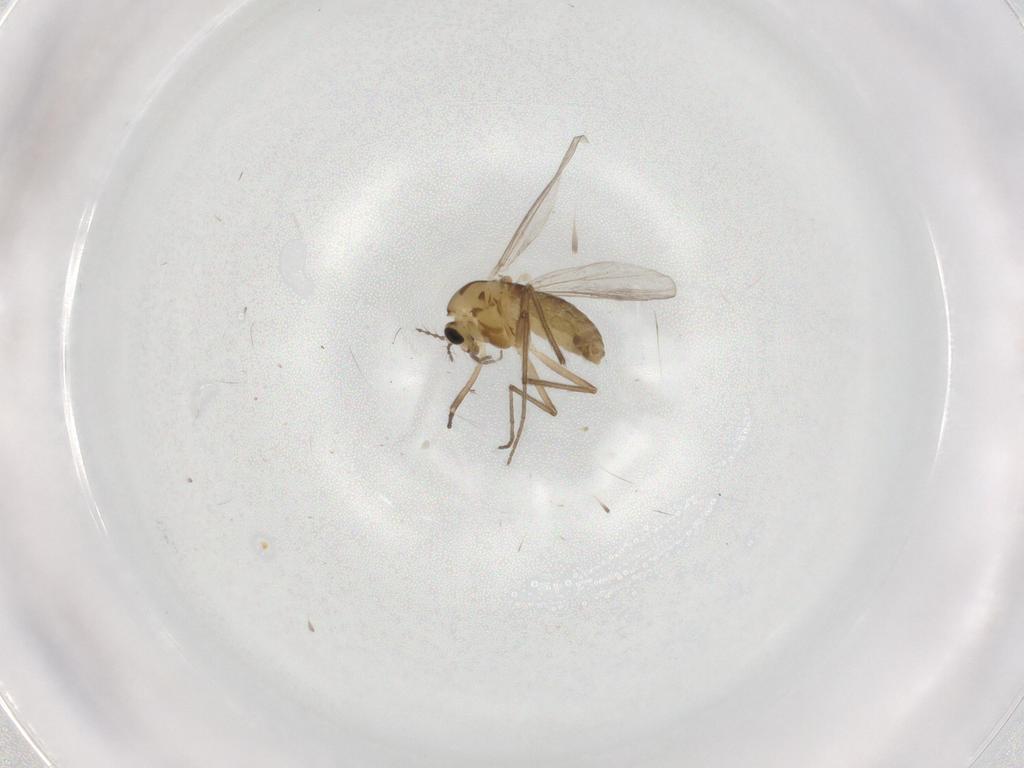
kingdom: Animalia
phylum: Arthropoda
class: Insecta
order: Diptera
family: Chironomidae
